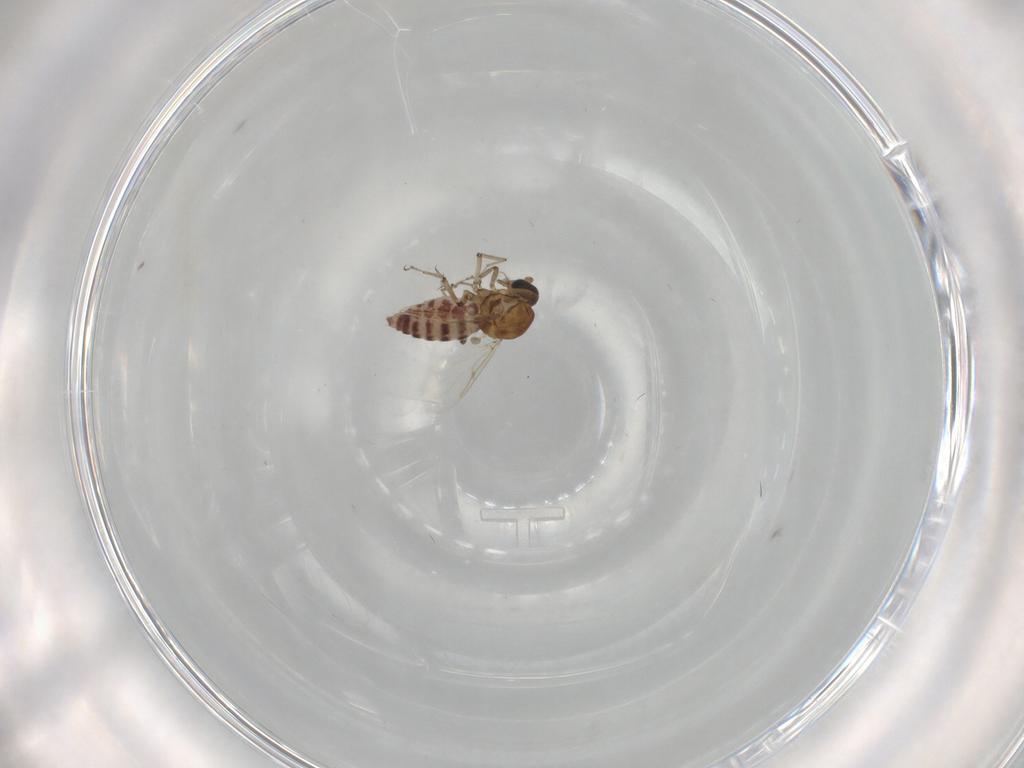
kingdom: Animalia
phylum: Arthropoda
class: Insecta
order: Diptera
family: Ceratopogonidae
